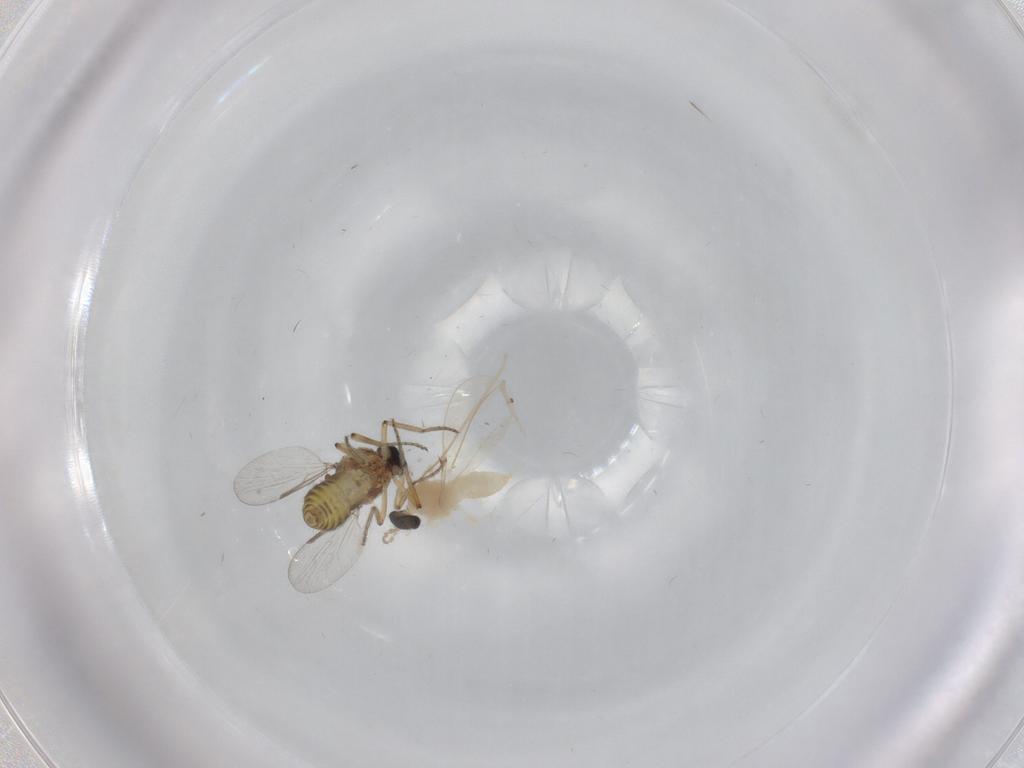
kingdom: Animalia
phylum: Arthropoda
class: Insecta
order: Diptera
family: Ceratopogonidae
